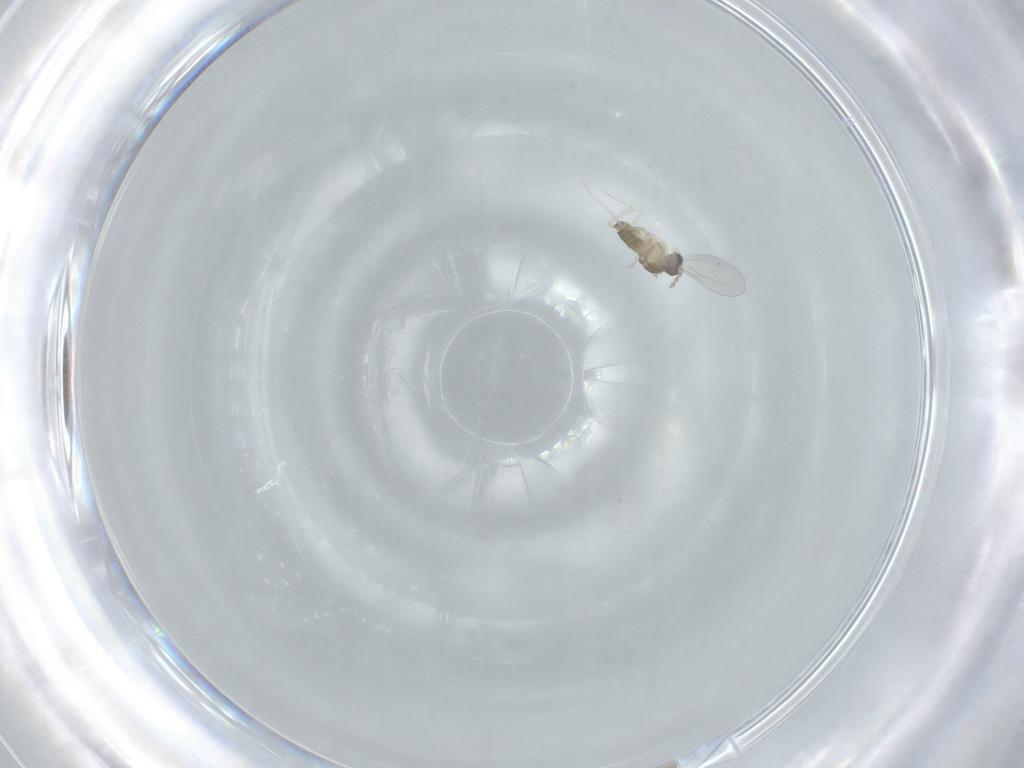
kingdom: Animalia
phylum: Arthropoda
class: Insecta
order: Diptera
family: Cecidomyiidae
